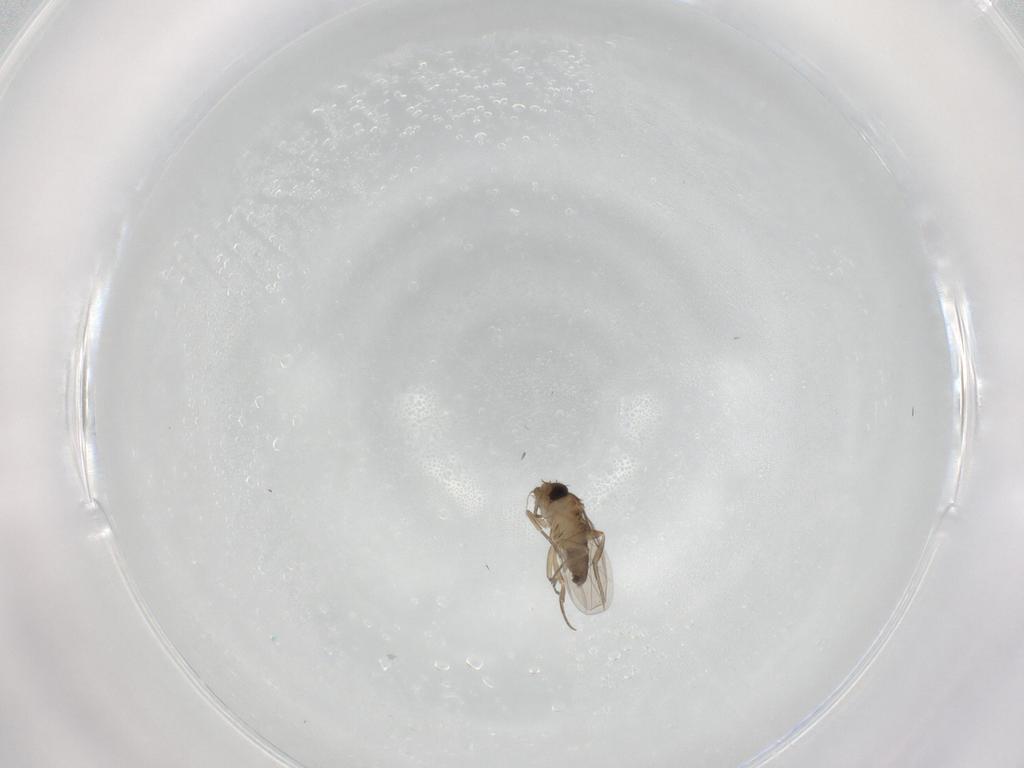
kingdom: Animalia
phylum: Arthropoda
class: Insecta
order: Diptera
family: Phoridae
